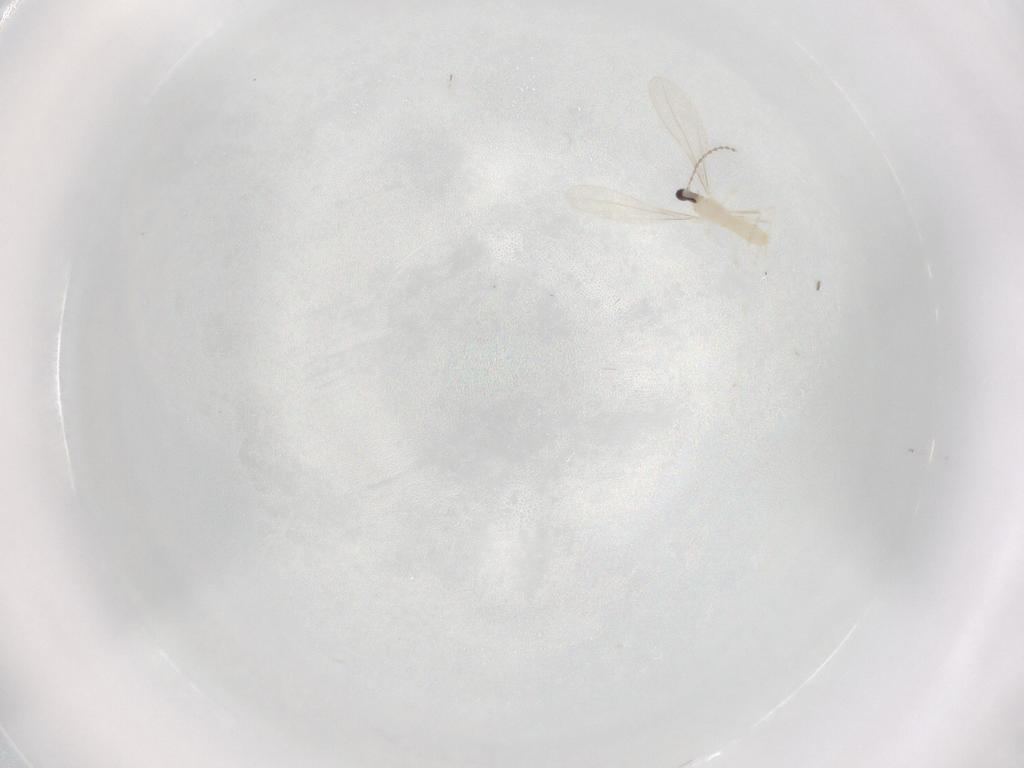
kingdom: Animalia
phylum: Arthropoda
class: Insecta
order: Diptera
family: Cecidomyiidae
